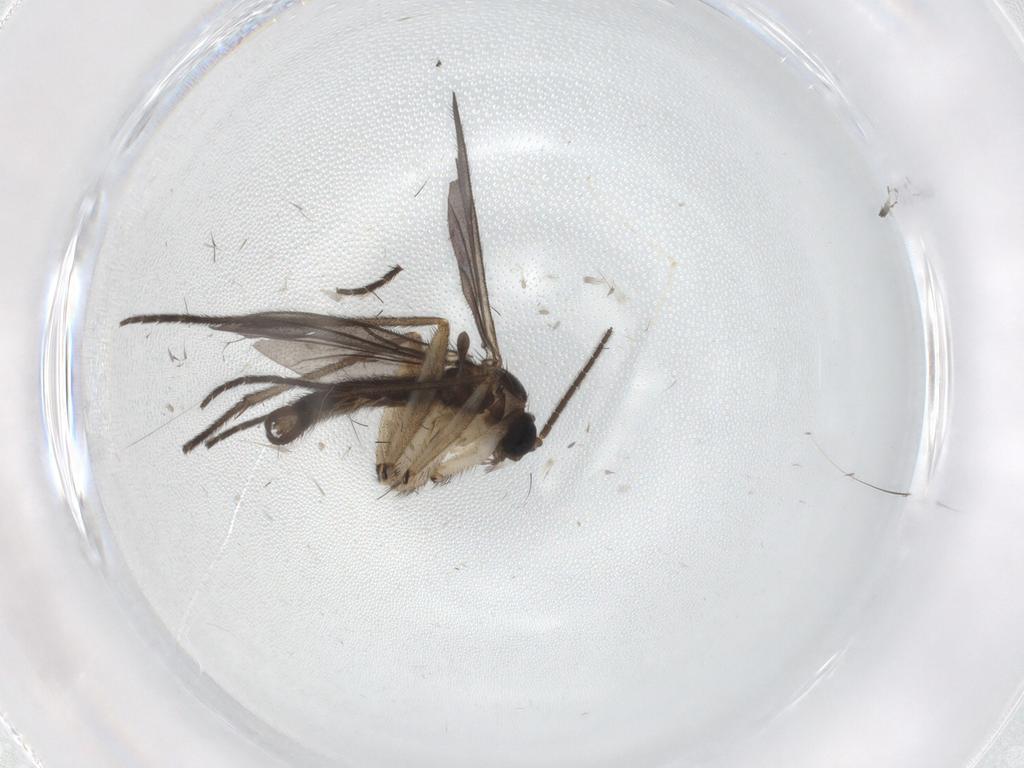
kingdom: Animalia
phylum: Arthropoda
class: Insecta
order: Diptera
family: Sciaridae
